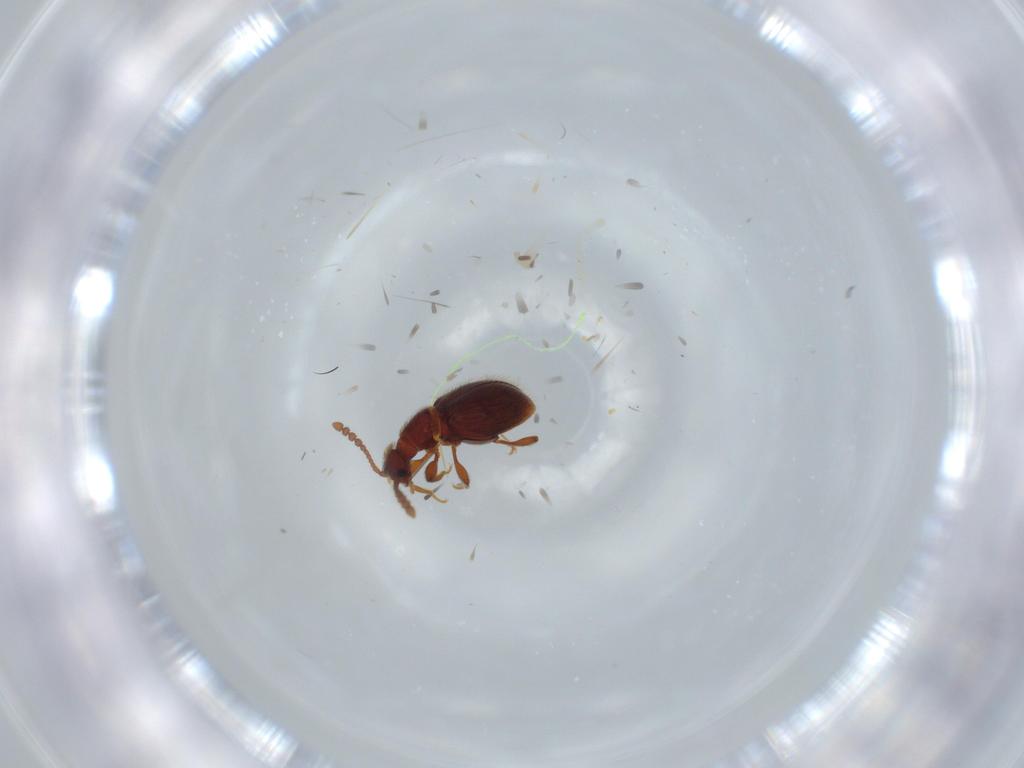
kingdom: Animalia
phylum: Arthropoda
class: Insecta
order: Coleoptera
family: Staphylinidae
